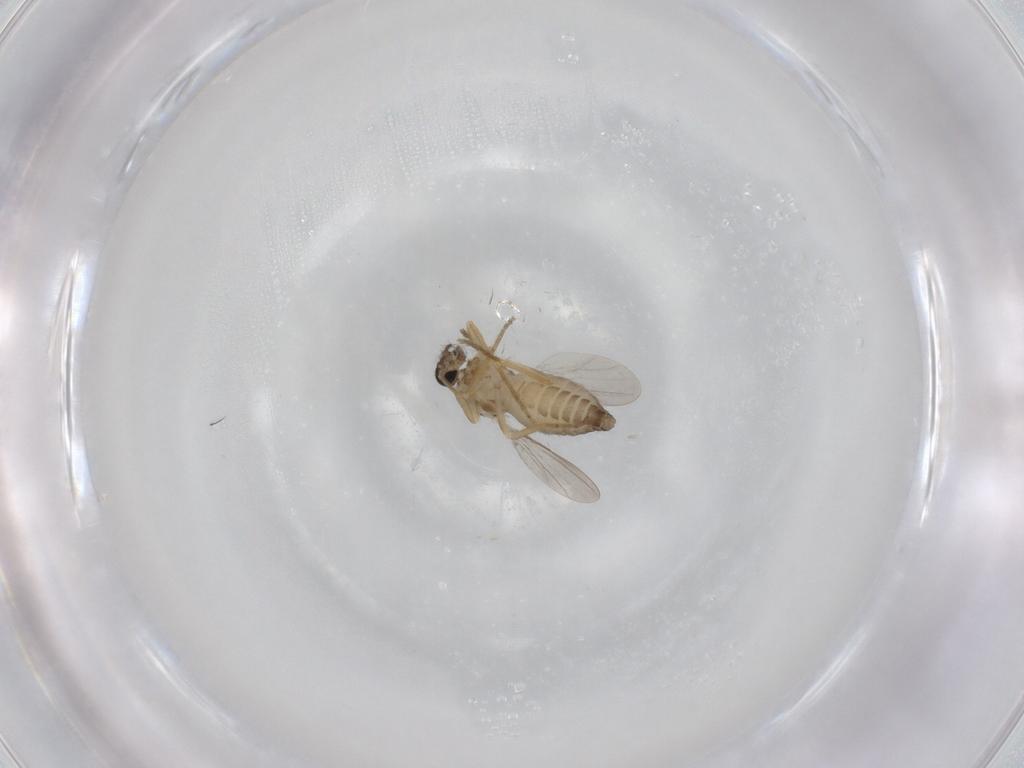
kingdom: Animalia
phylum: Arthropoda
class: Insecta
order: Diptera
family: Ceratopogonidae
